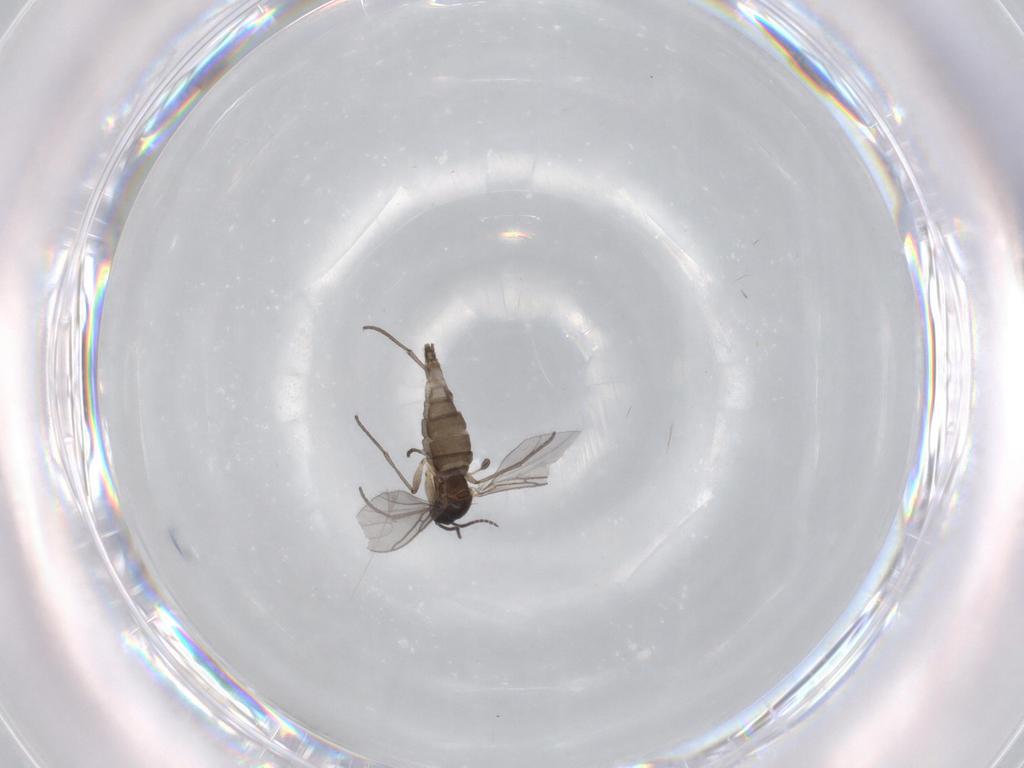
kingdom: Animalia
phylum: Arthropoda
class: Insecta
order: Diptera
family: Sciaridae
